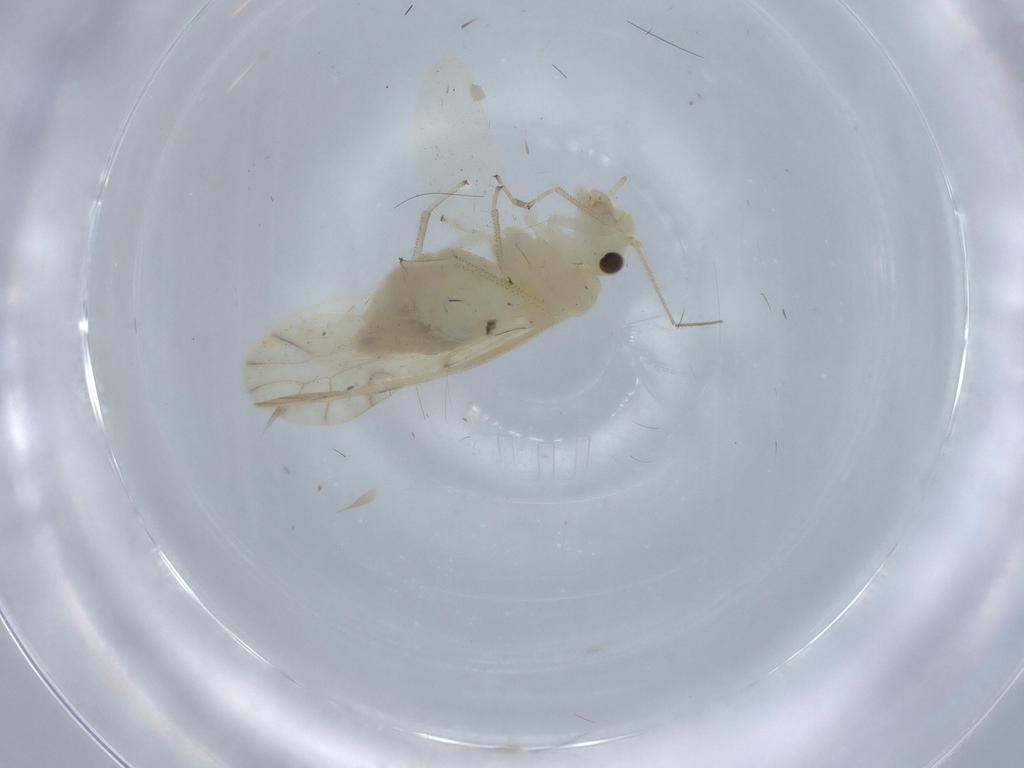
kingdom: Animalia
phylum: Arthropoda
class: Insecta
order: Psocodea
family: Caeciliusidae
